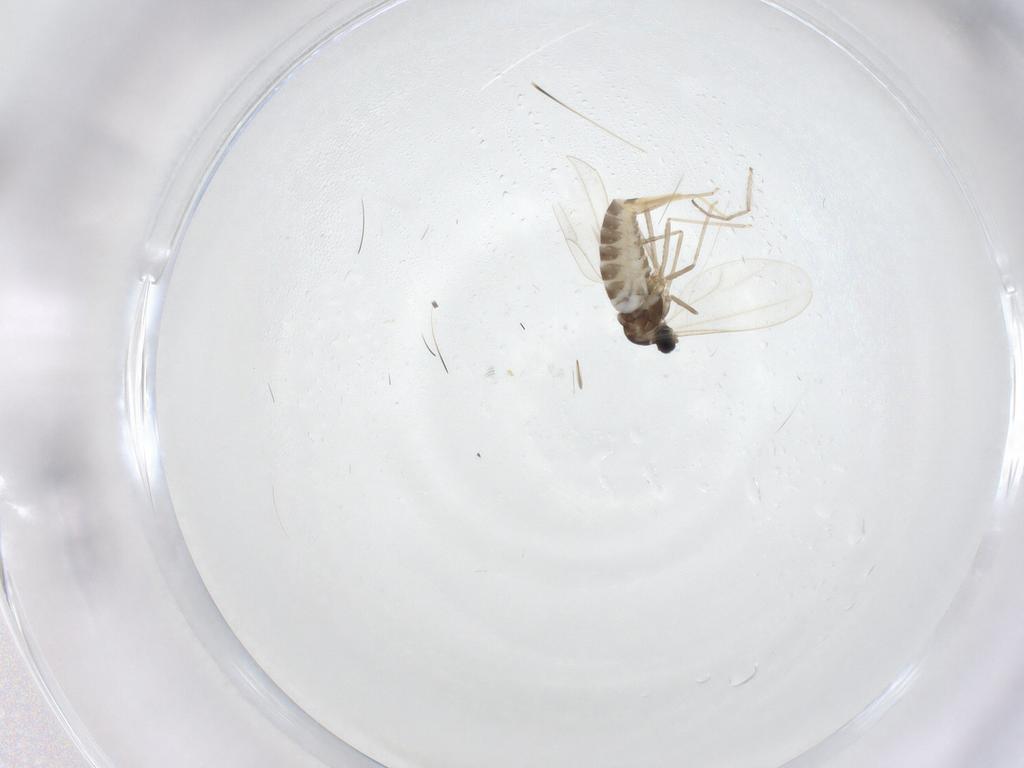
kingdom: Animalia
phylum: Arthropoda
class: Insecta
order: Diptera
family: Cecidomyiidae
